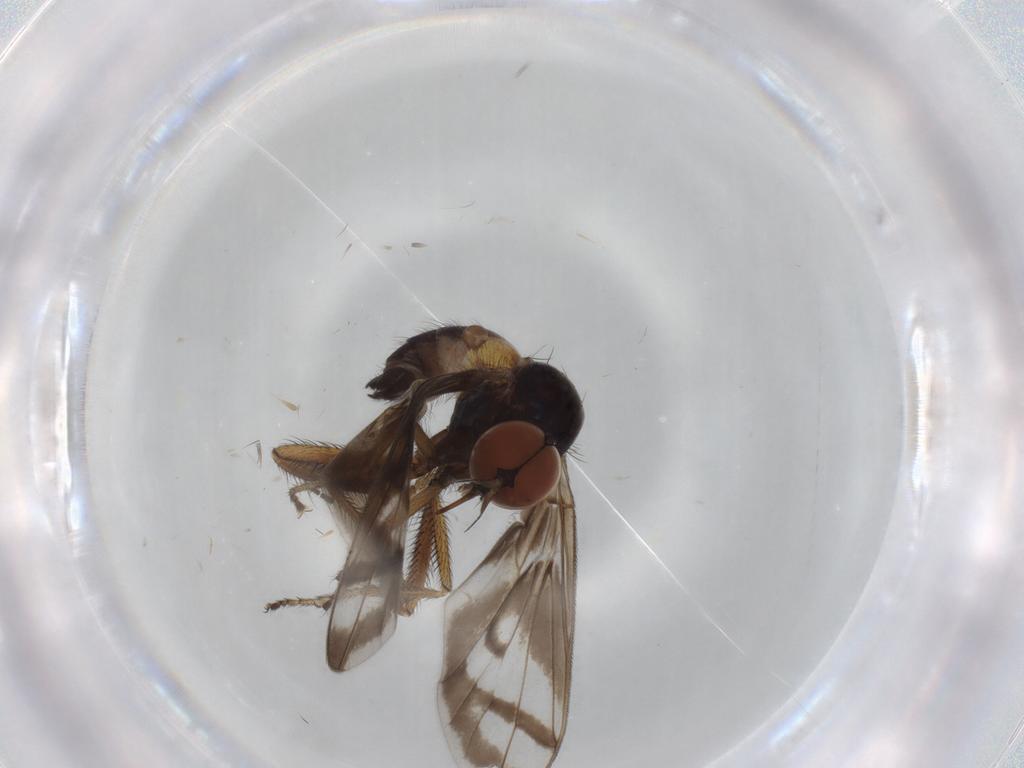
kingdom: Animalia
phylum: Arthropoda
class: Insecta
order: Diptera
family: Empididae
